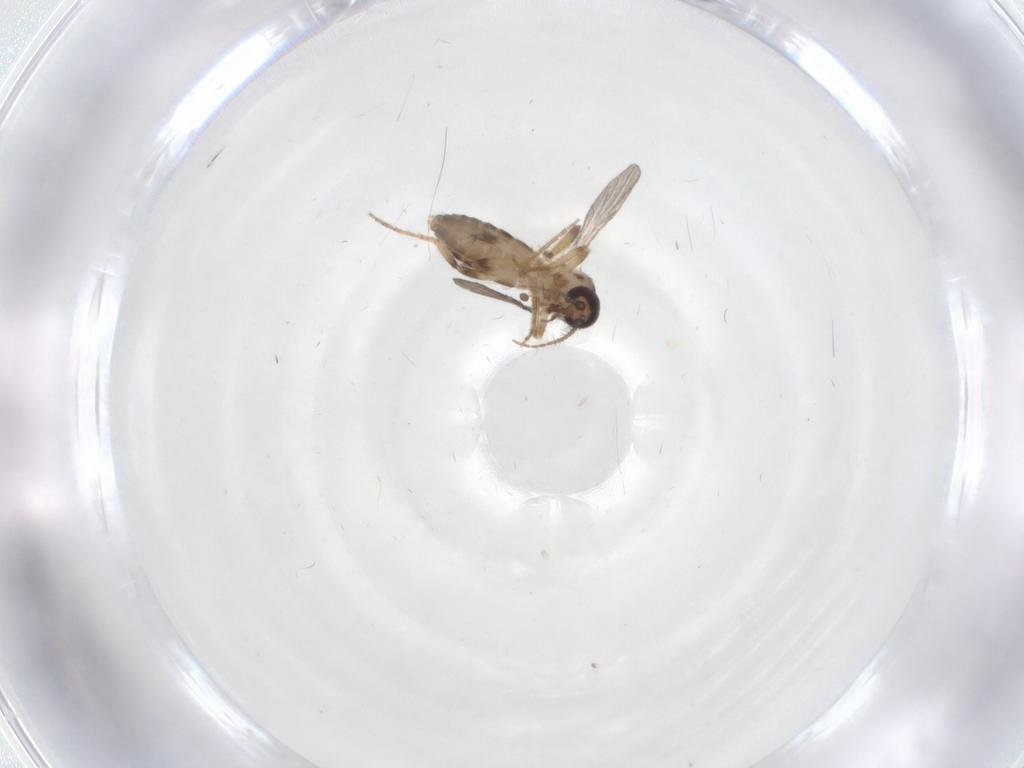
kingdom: Animalia
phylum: Arthropoda
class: Insecta
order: Diptera
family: Ceratopogonidae
